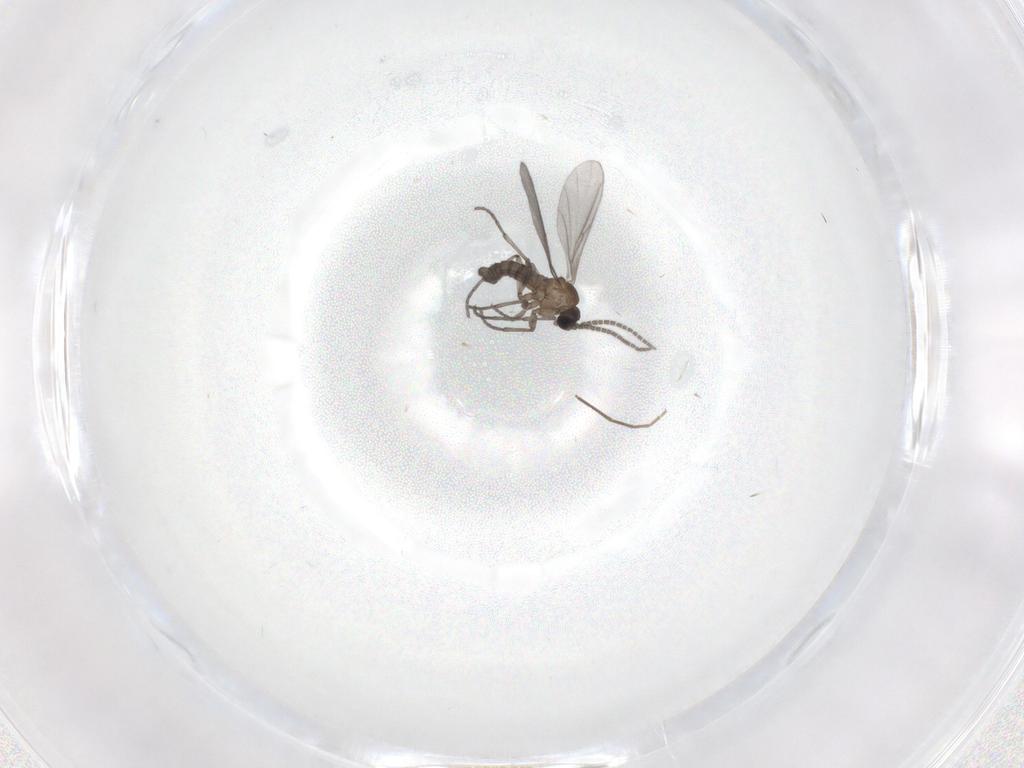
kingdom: Animalia
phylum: Arthropoda
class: Insecta
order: Diptera
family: Sciaridae
